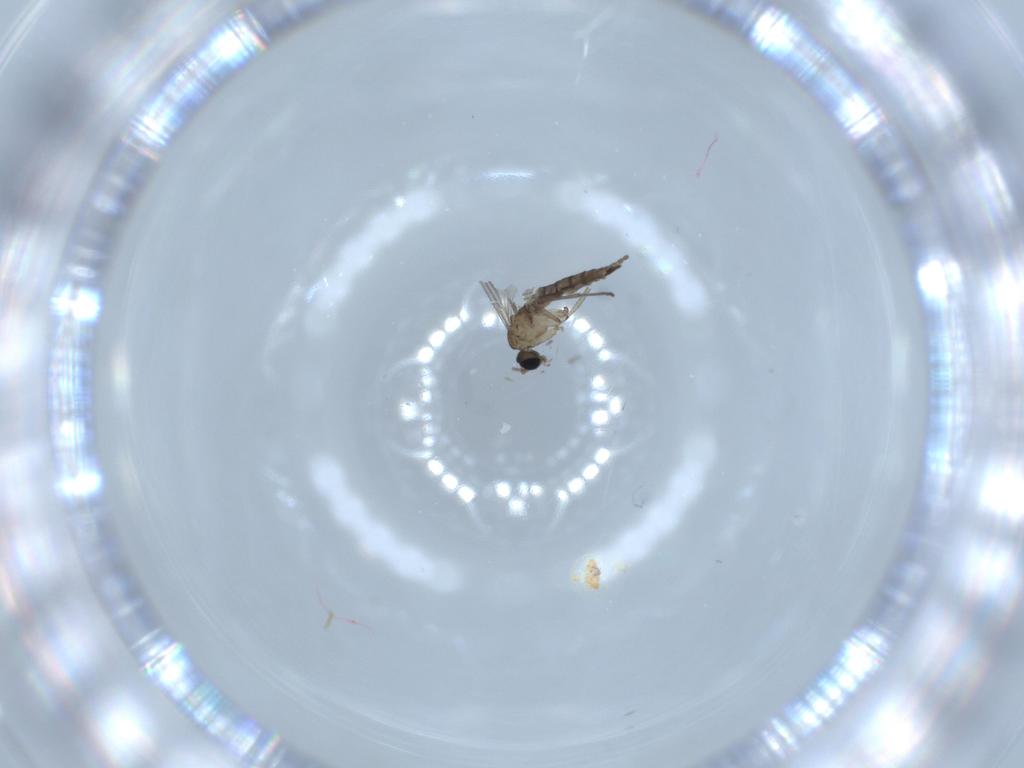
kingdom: Animalia
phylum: Arthropoda
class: Insecta
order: Diptera
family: Sciaridae
